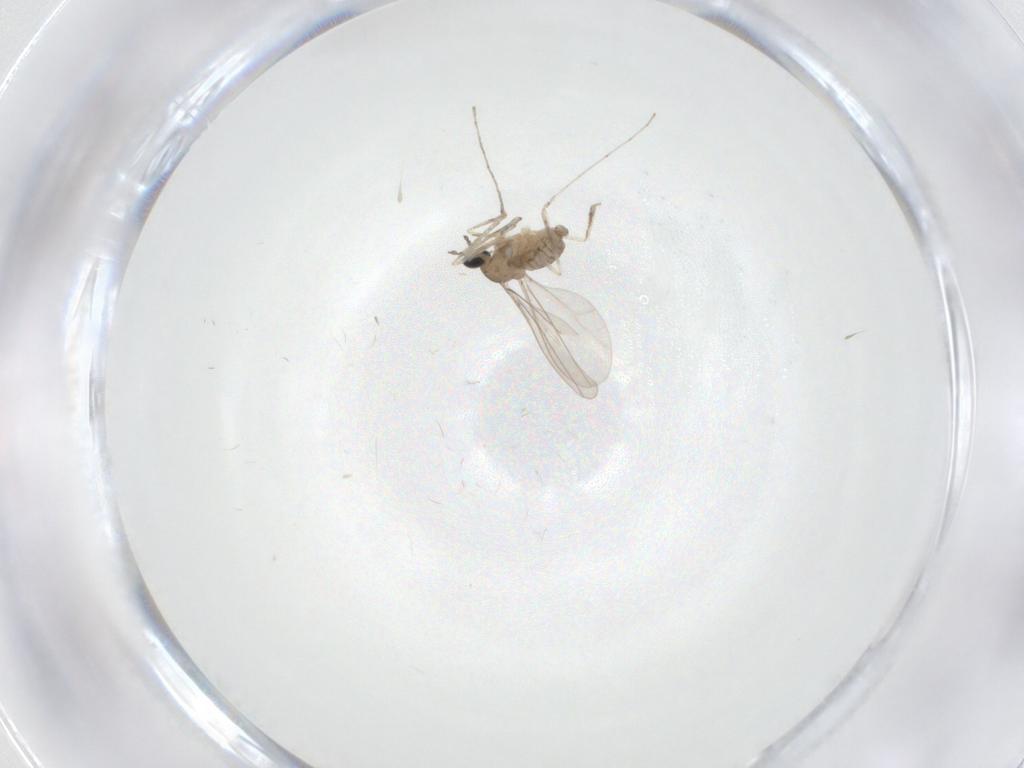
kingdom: Animalia
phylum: Arthropoda
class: Insecta
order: Diptera
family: Cecidomyiidae
